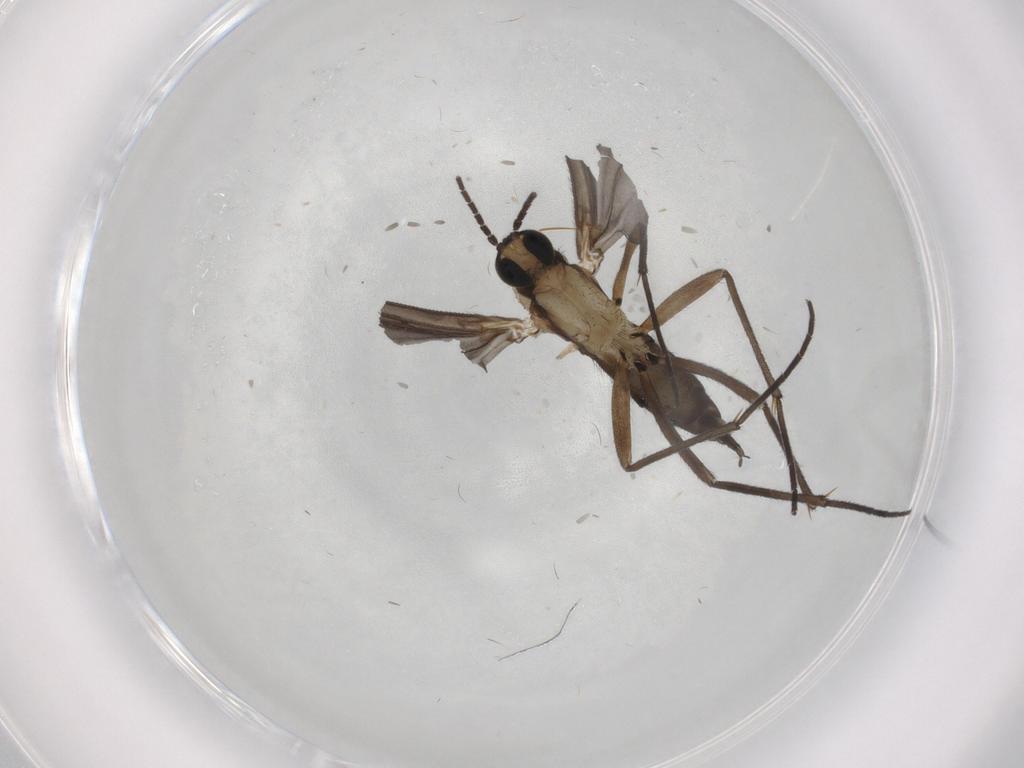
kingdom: Animalia
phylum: Arthropoda
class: Insecta
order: Diptera
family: Sciaridae
